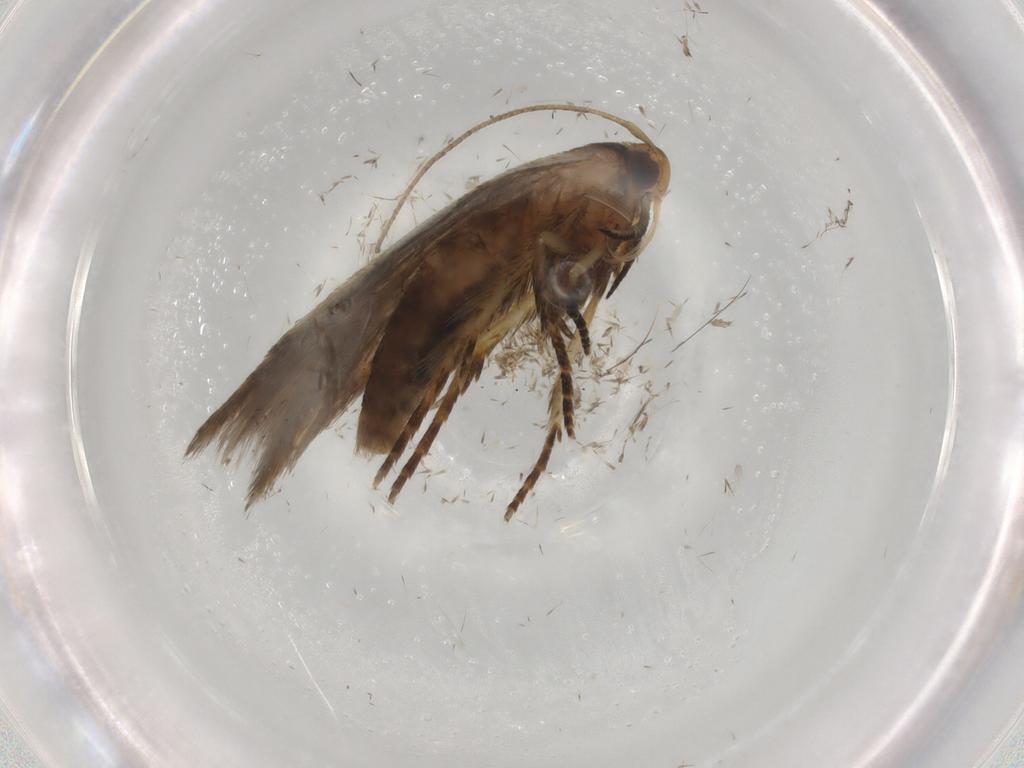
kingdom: Animalia
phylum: Arthropoda
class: Insecta
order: Lepidoptera
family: Cosmopterigidae
